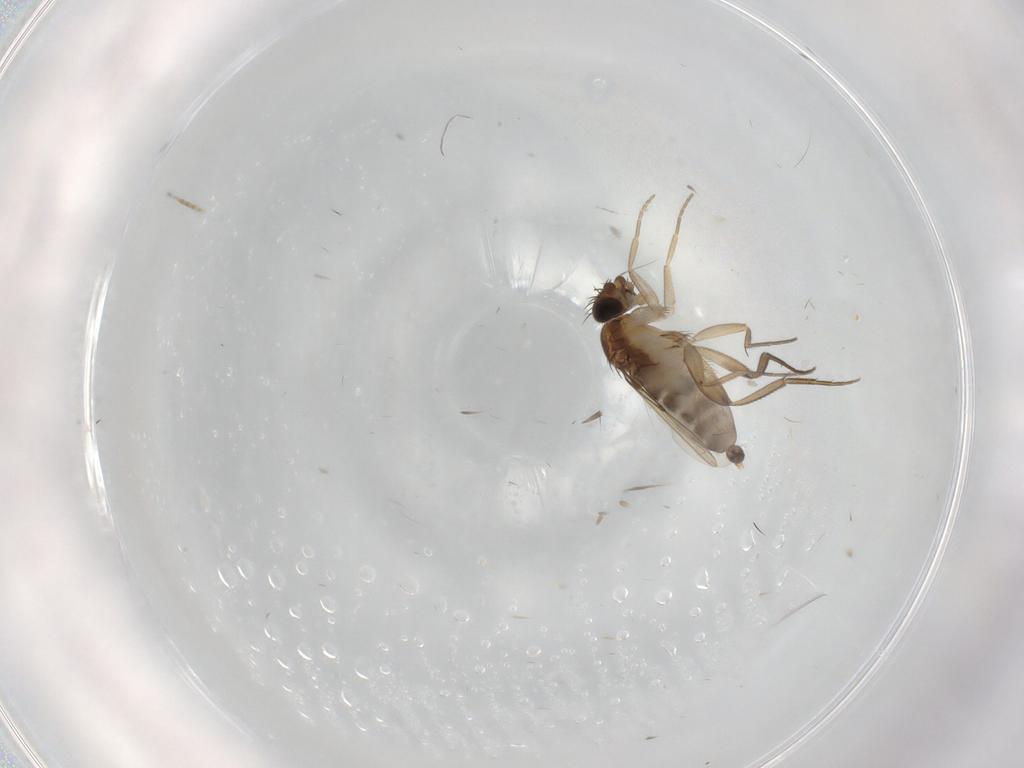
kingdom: Animalia
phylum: Arthropoda
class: Insecta
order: Diptera
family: Phoridae
